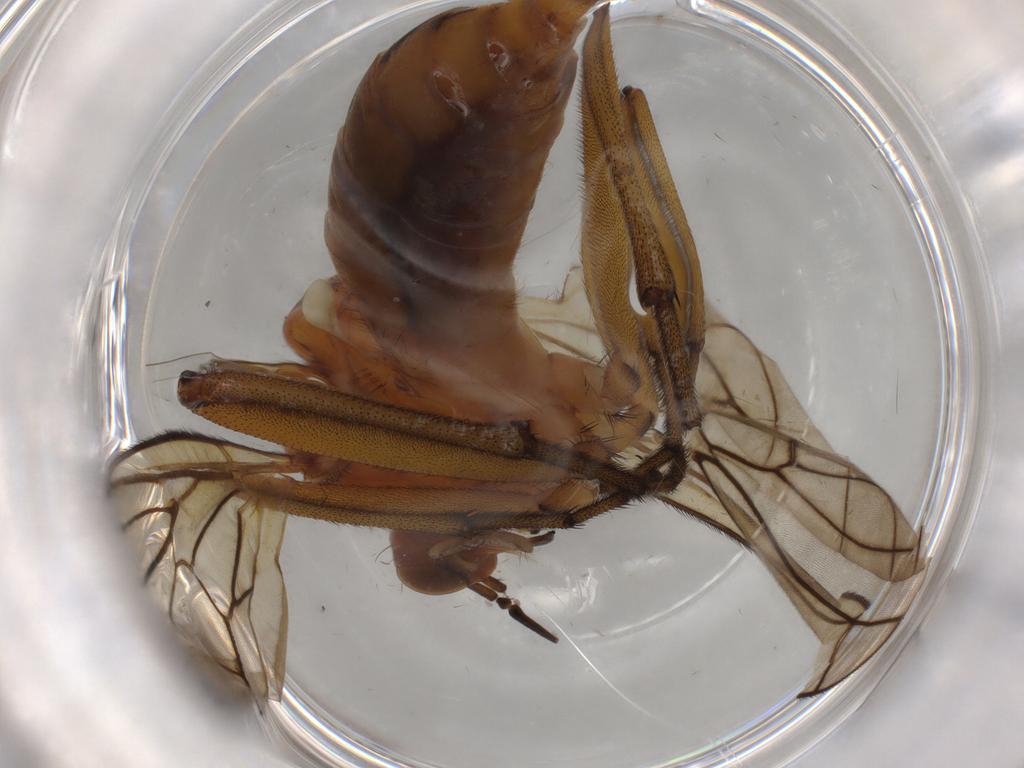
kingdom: Animalia
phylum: Arthropoda
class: Insecta
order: Diptera
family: Empididae
